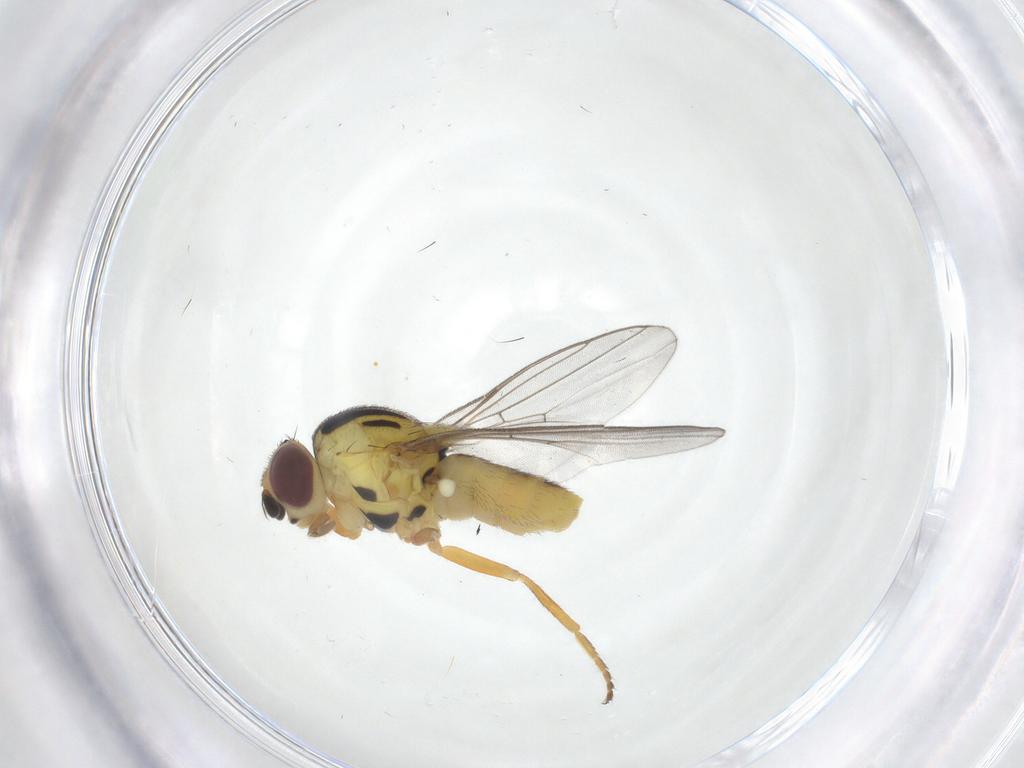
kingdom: Animalia
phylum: Arthropoda
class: Insecta
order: Diptera
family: Chloropidae
